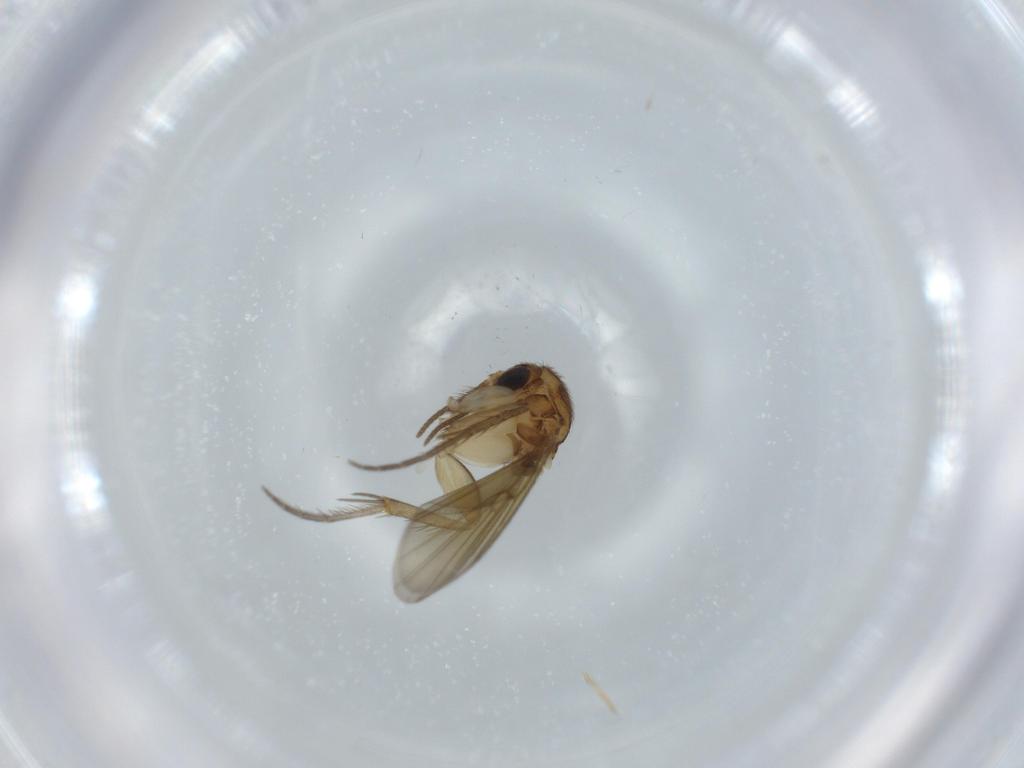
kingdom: Animalia
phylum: Arthropoda
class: Insecta
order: Diptera
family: Mycetophilidae
